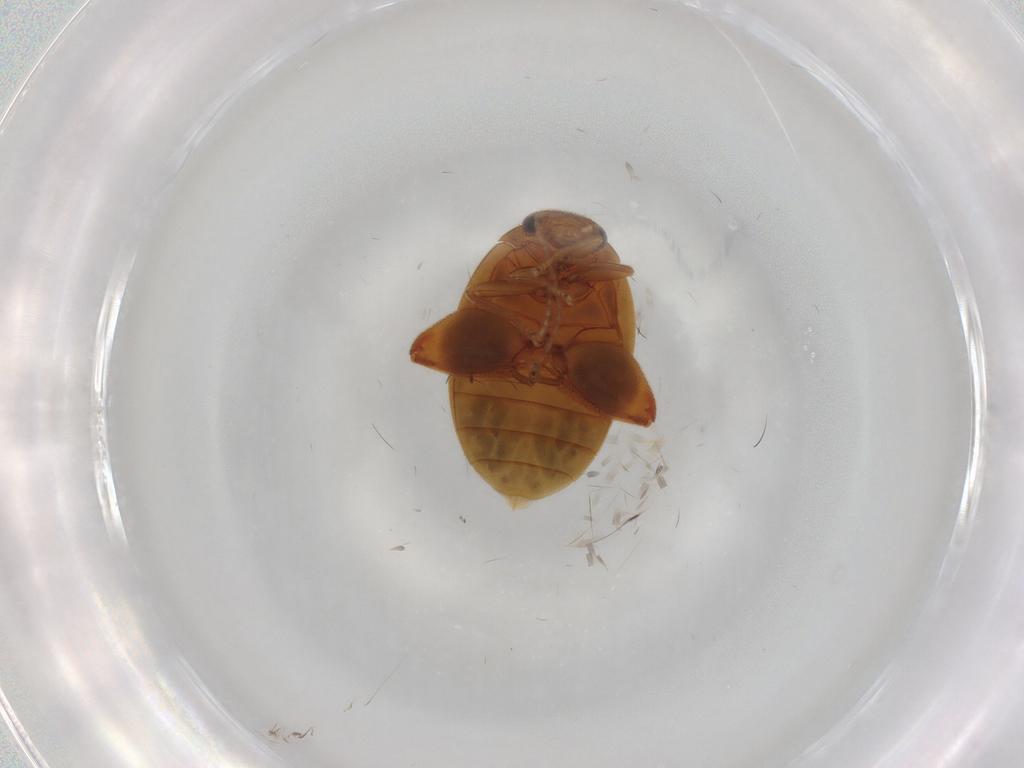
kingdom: Animalia
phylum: Arthropoda
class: Insecta
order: Coleoptera
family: Scirtidae
